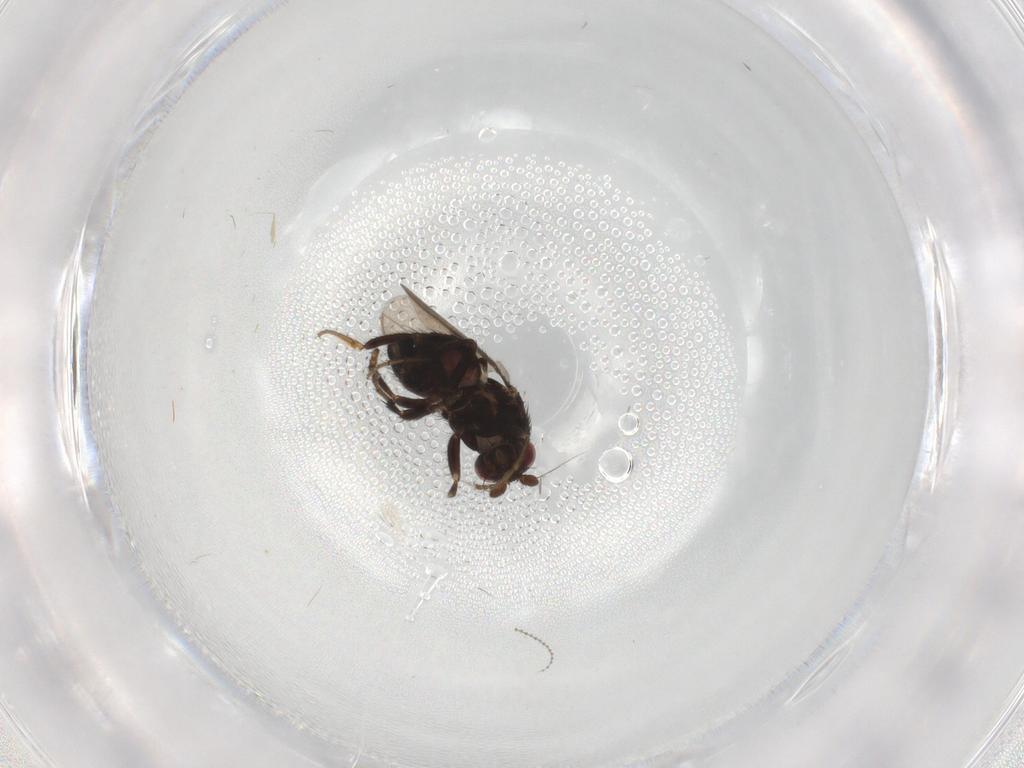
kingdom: Animalia
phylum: Arthropoda
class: Insecta
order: Diptera
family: Sphaeroceridae
